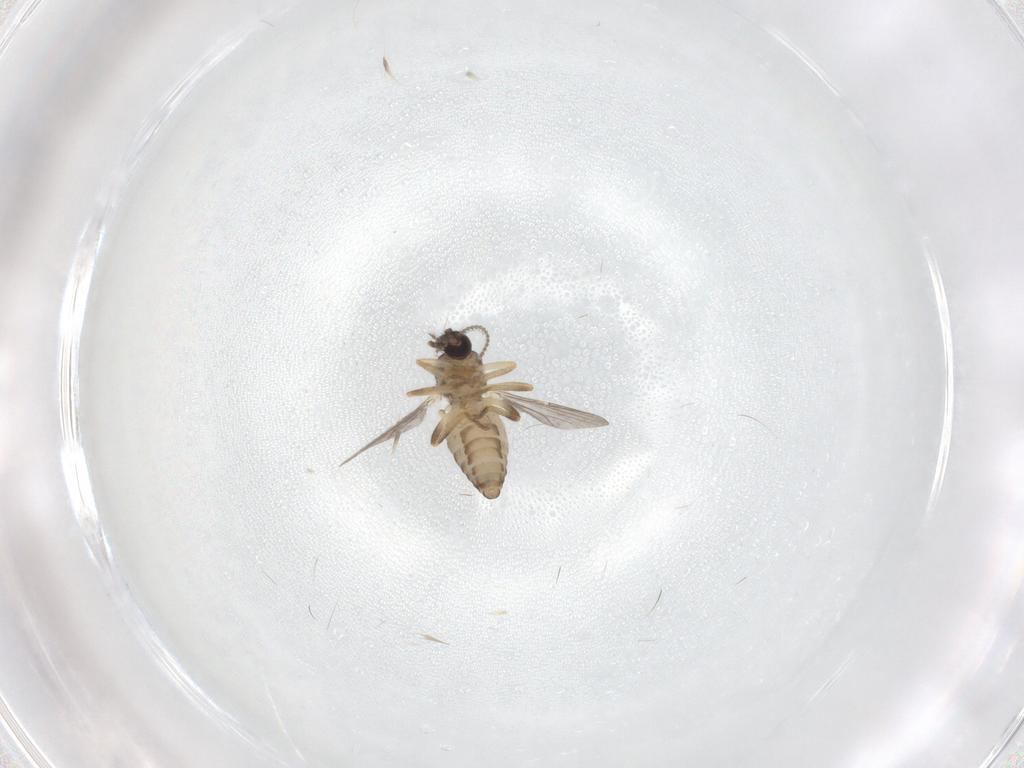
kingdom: Animalia
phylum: Arthropoda
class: Insecta
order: Diptera
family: Ceratopogonidae
